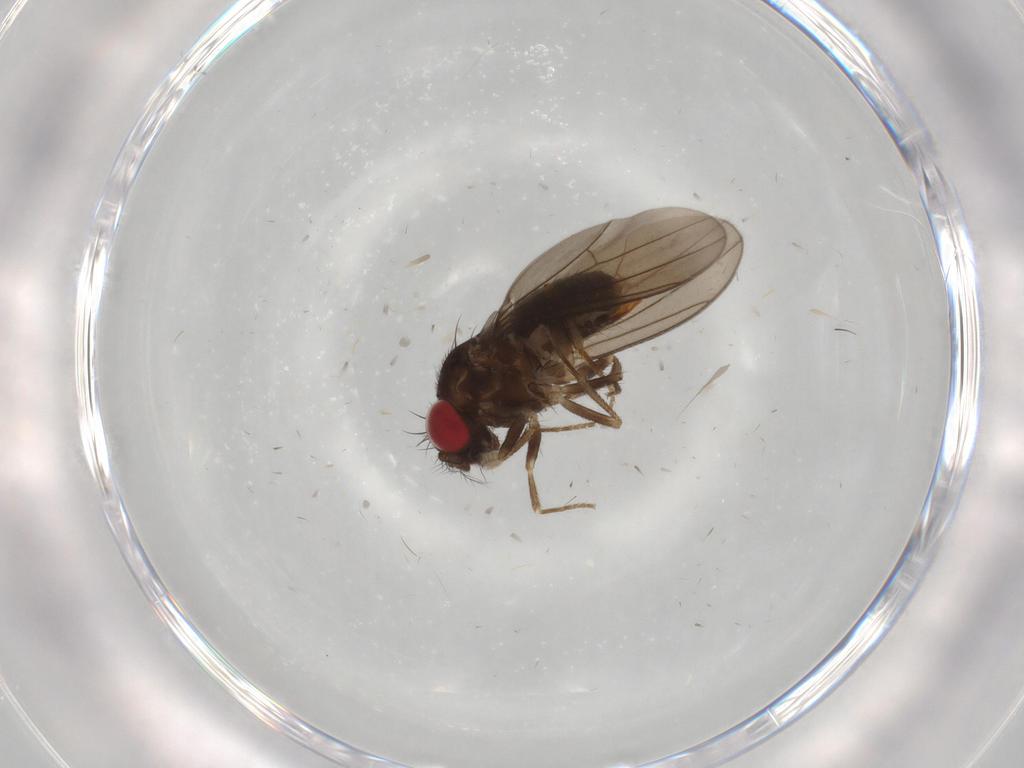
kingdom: Animalia
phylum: Arthropoda
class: Insecta
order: Diptera
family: Drosophilidae
